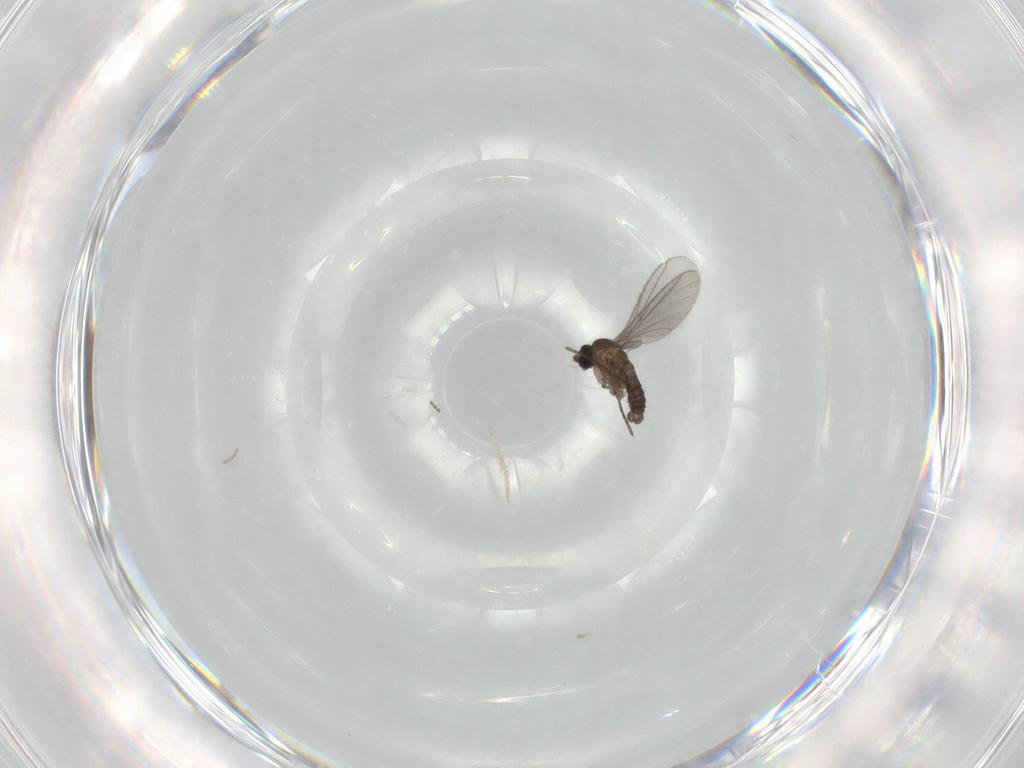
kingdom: Animalia
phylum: Arthropoda
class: Insecta
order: Diptera
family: Chironomidae
